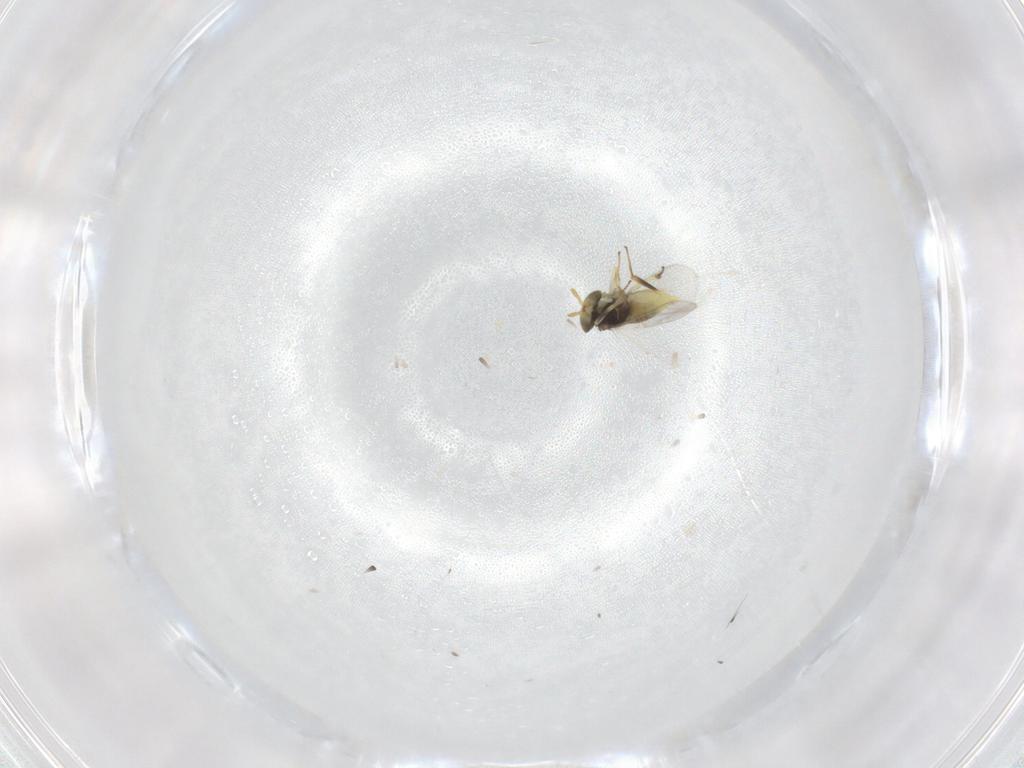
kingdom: Animalia
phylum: Arthropoda
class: Insecta
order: Hymenoptera
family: Aphelinidae
